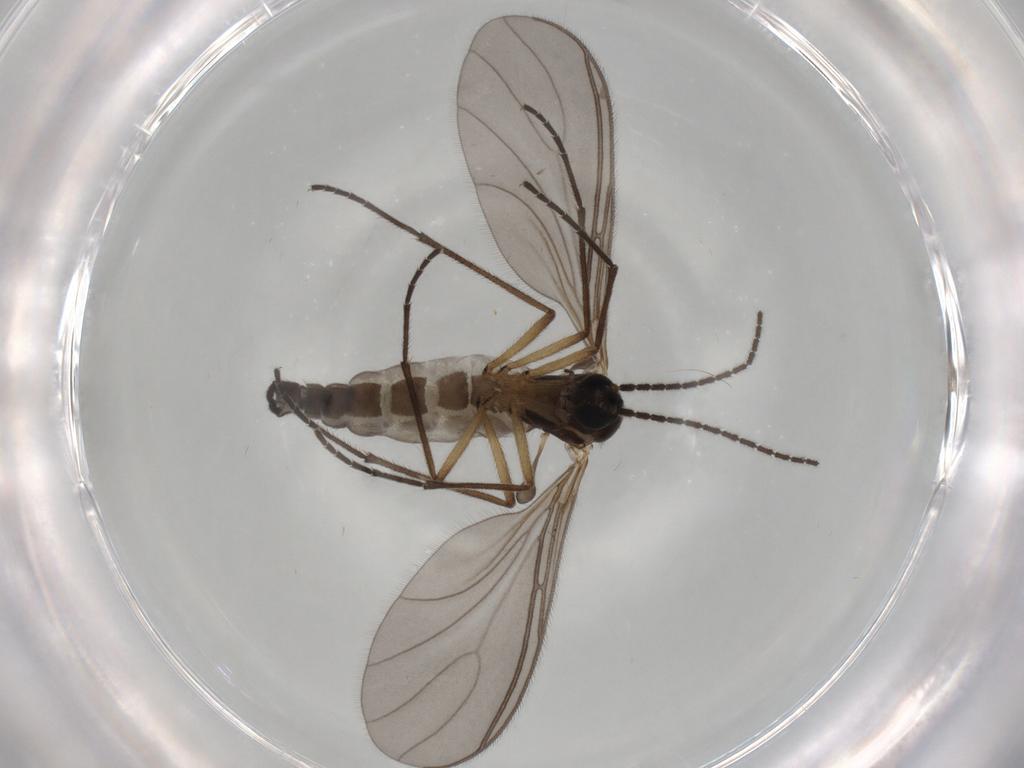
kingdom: Animalia
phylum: Arthropoda
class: Insecta
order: Diptera
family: Sciaridae
